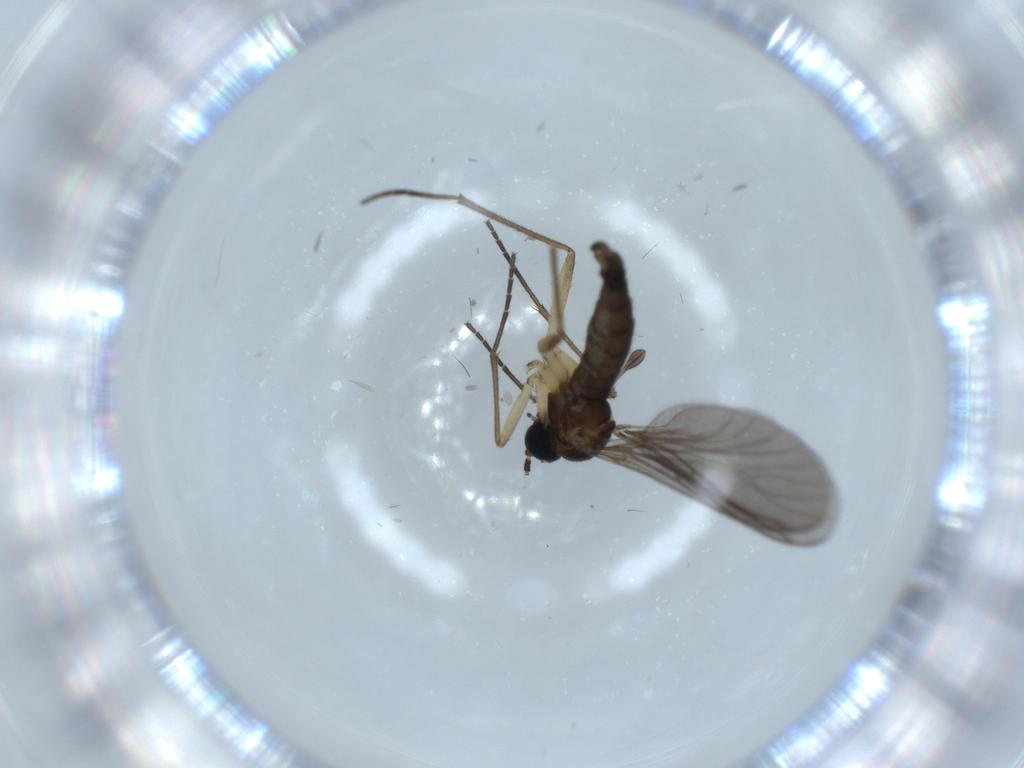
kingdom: Animalia
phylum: Arthropoda
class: Insecta
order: Diptera
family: Sciaridae
